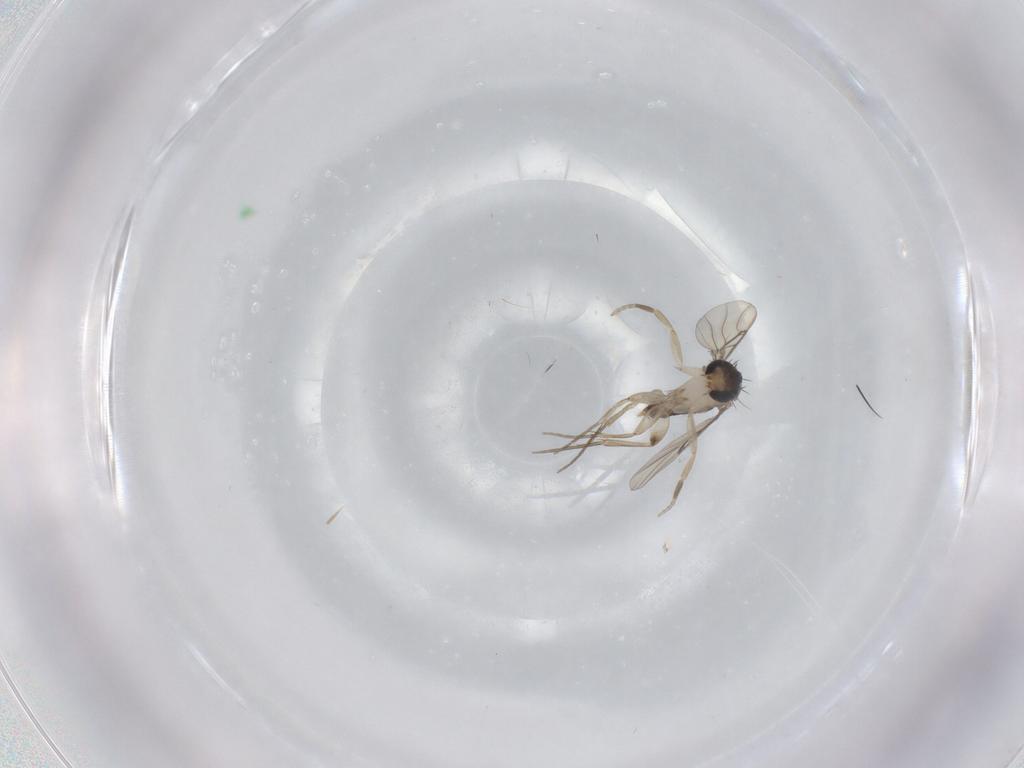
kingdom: Animalia
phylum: Arthropoda
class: Insecta
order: Diptera
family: Phoridae
